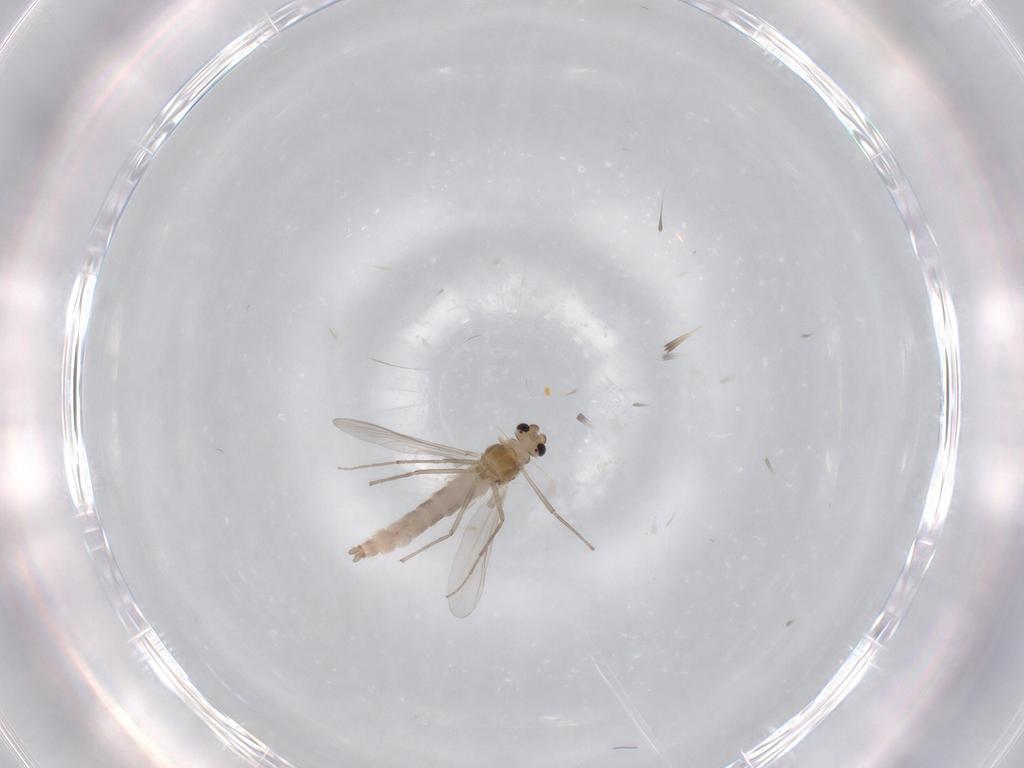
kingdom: Animalia
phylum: Arthropoda
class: Insecta
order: Diptera
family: Chironomidae
